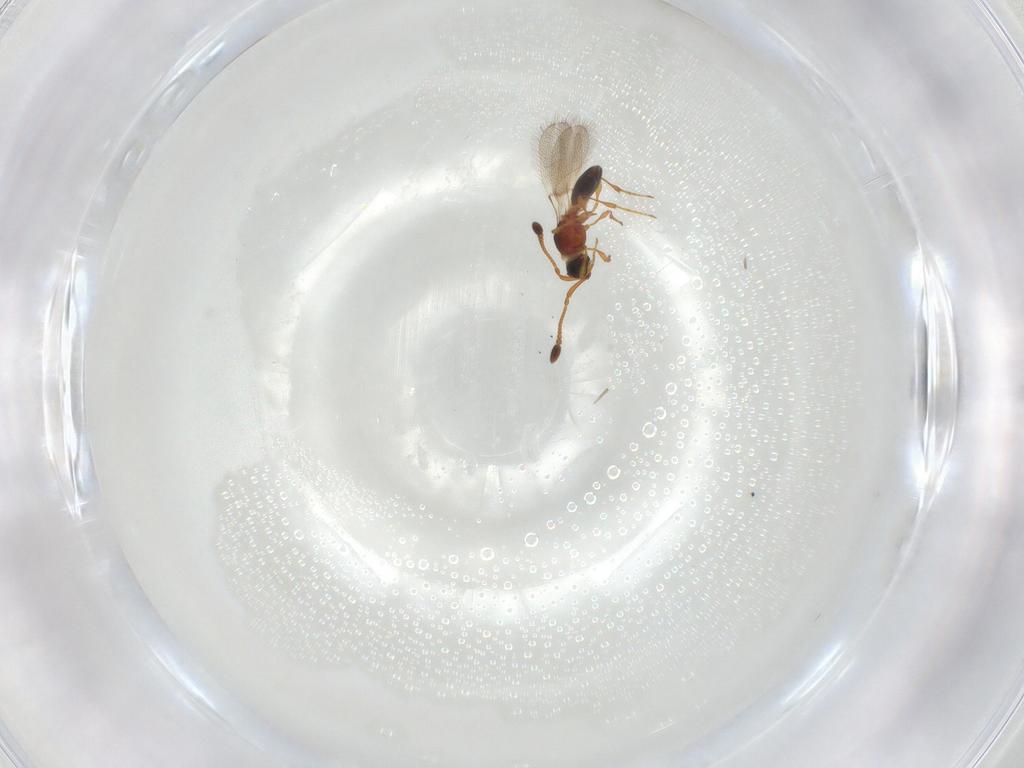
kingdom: Animalia
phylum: Arthropoda
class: Insecta
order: Hymenoptera
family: Diapriidae
